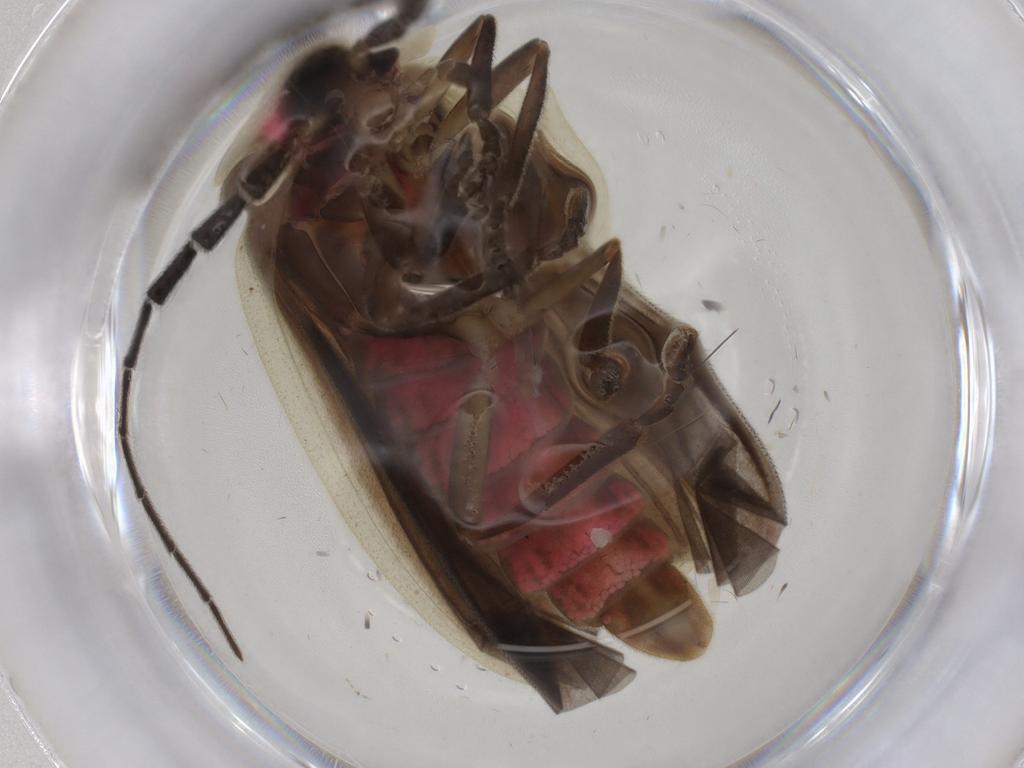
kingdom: Animalia
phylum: Arthropoda
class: Insecta
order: Coleoptera
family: Lampyridae
